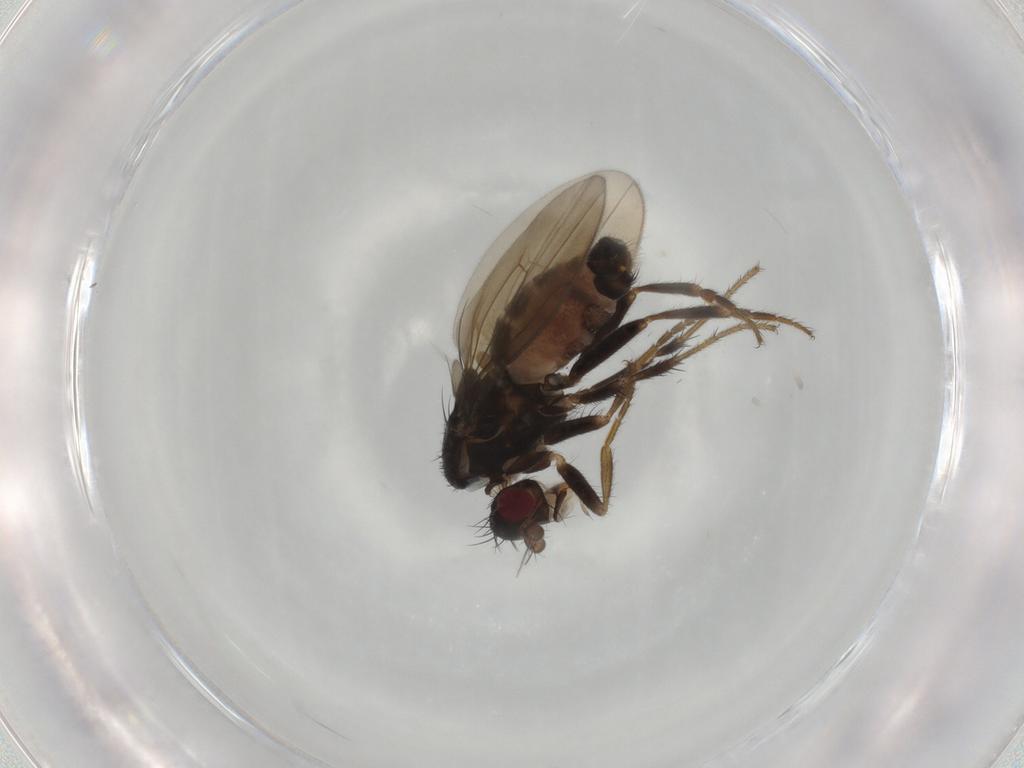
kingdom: Animalia
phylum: Arthropoda
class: Insecta
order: Diptera
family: Sphaeroceridae
